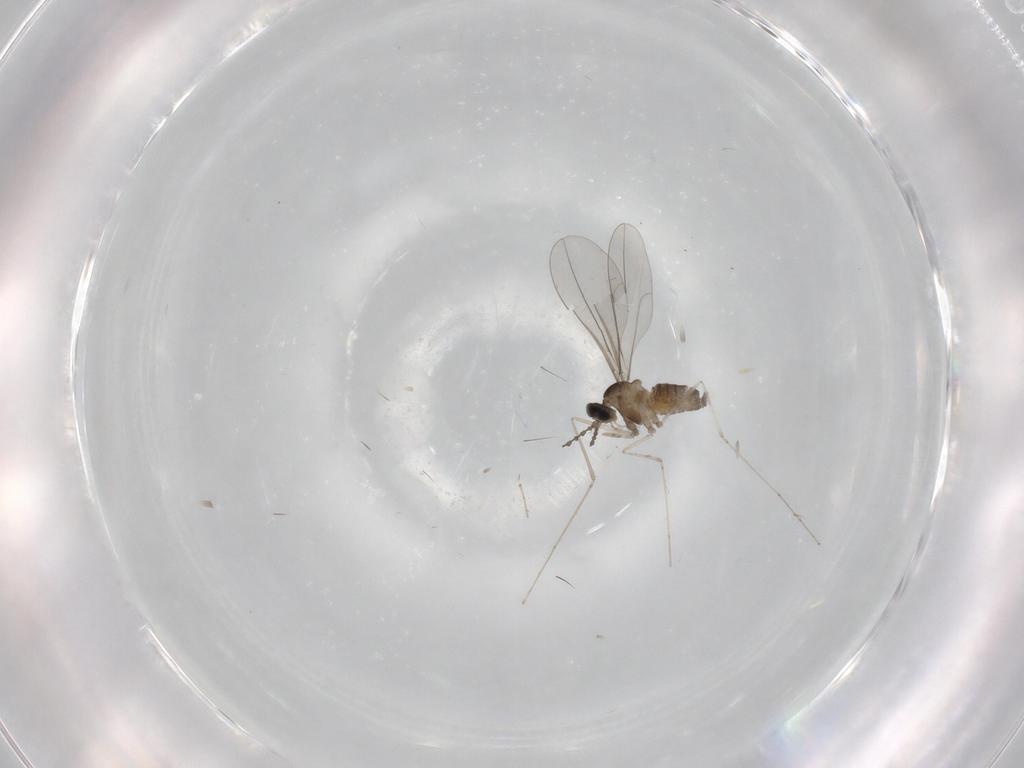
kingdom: Animalia
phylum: Arthropoda
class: Insecta
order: Diptera
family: Cecidomyiidae
